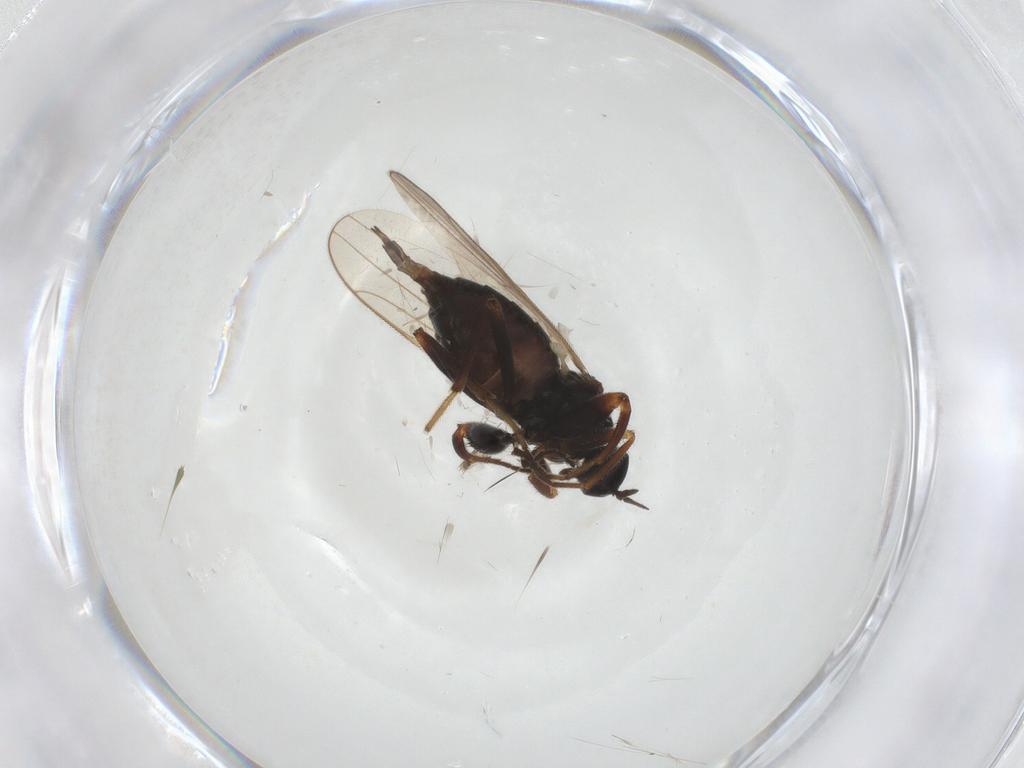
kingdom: Animalia
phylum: Arthropoda
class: Insecta
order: Diptera
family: Hybotidae
